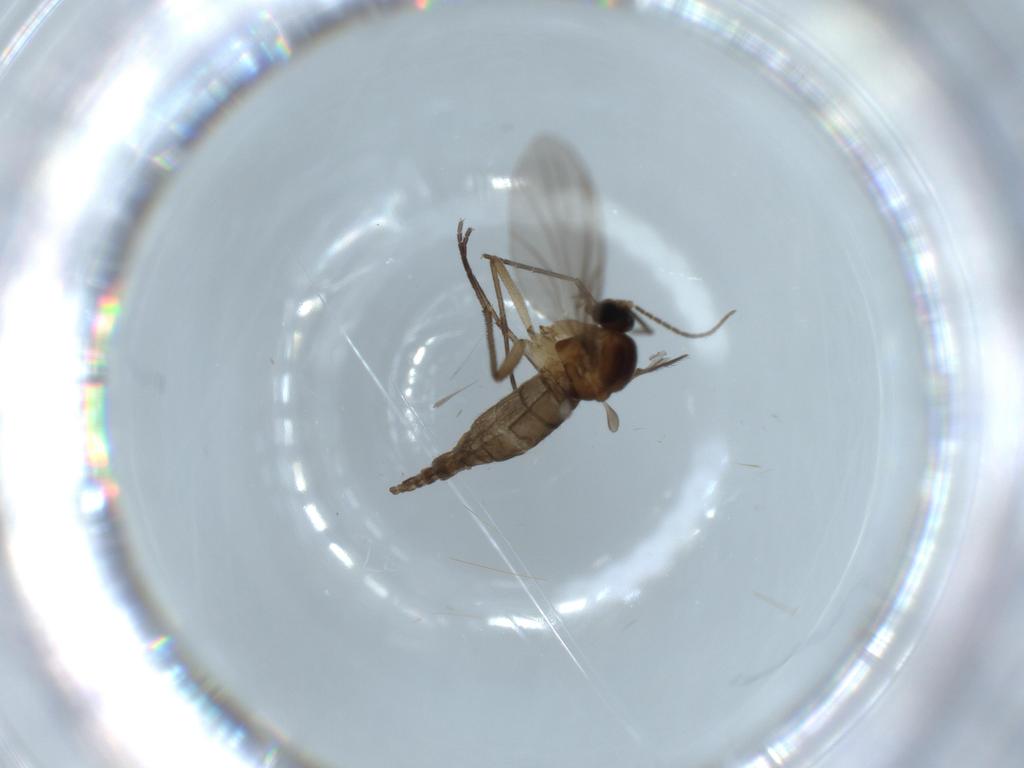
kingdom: Animalia
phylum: Arthropoda
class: Insecta
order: Diptera
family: Sciaridae
